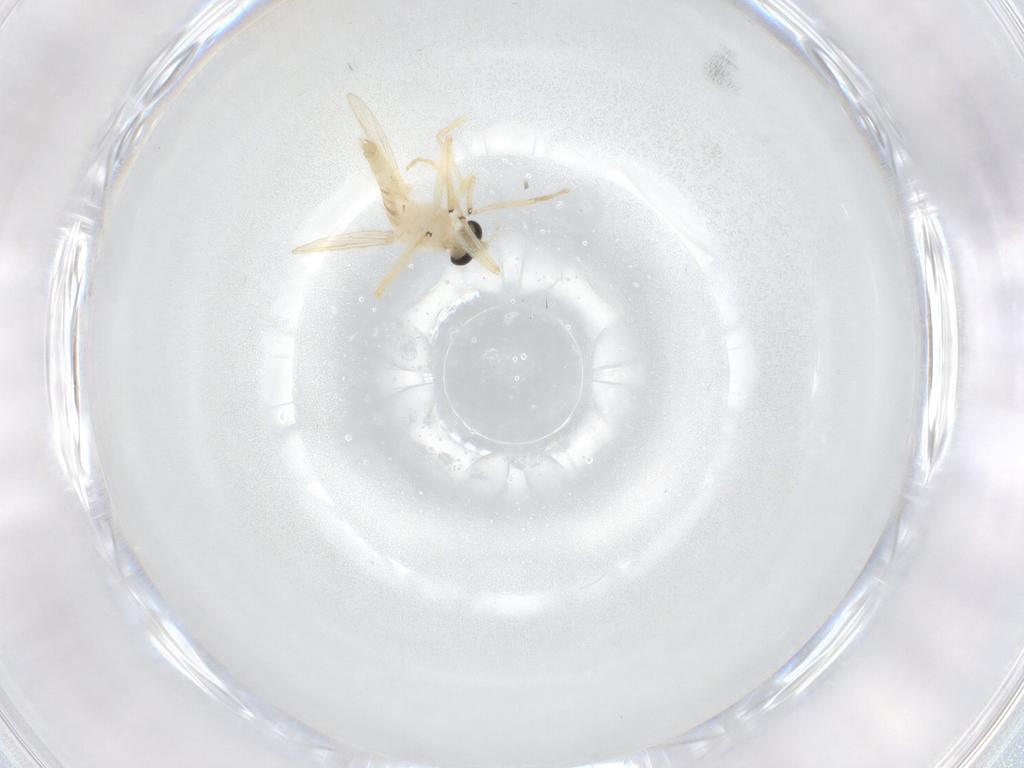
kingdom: Animalia
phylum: Arthropoda
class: Insecta
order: Diptera
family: Chironomidae
